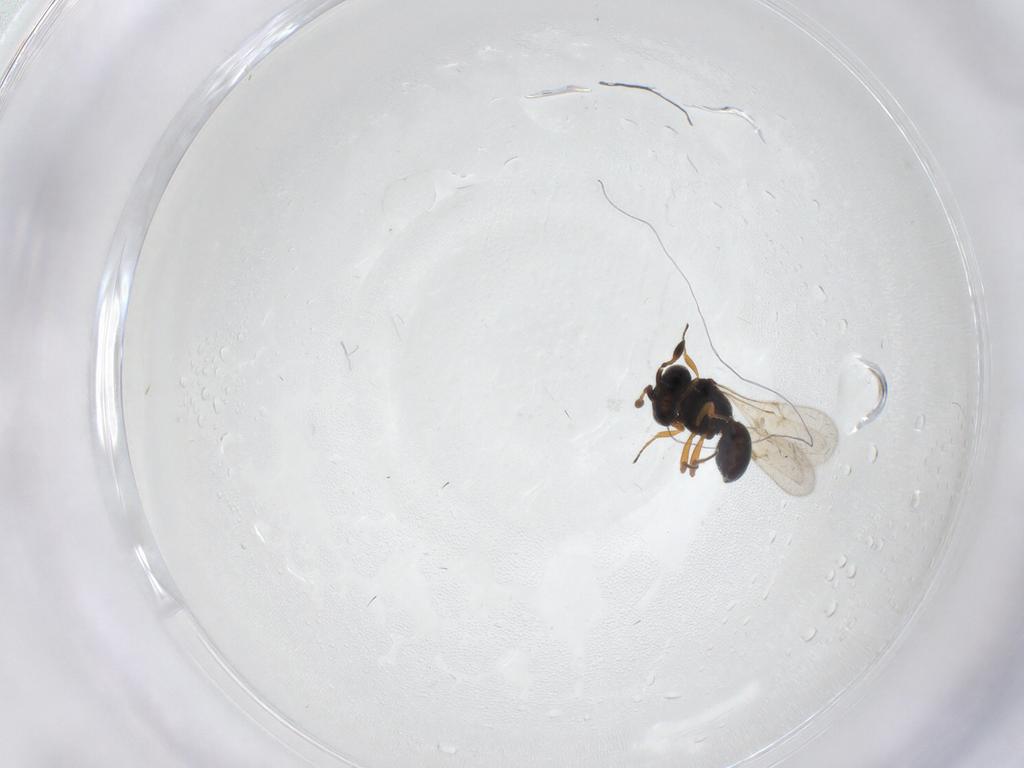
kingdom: Animalia
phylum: Arthropoda
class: Insecta
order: Hymenoptera
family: Scelionidae
